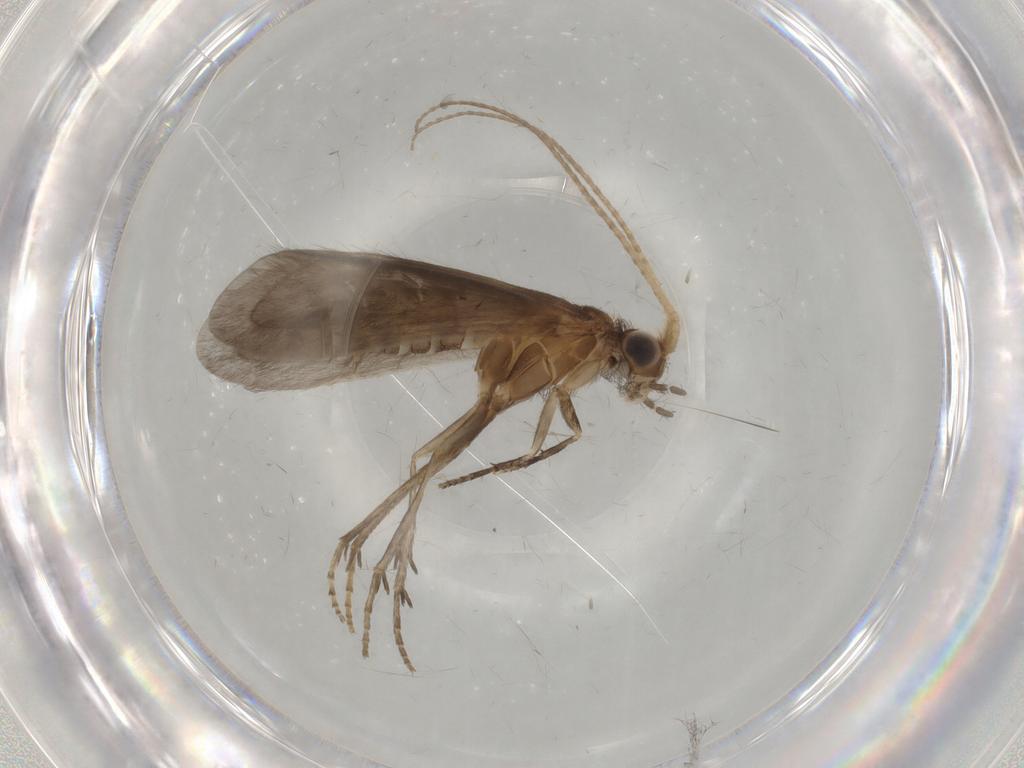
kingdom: Animalia
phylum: Arthropoda
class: Insecta
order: Trichoptera
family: Helicopsychidae
